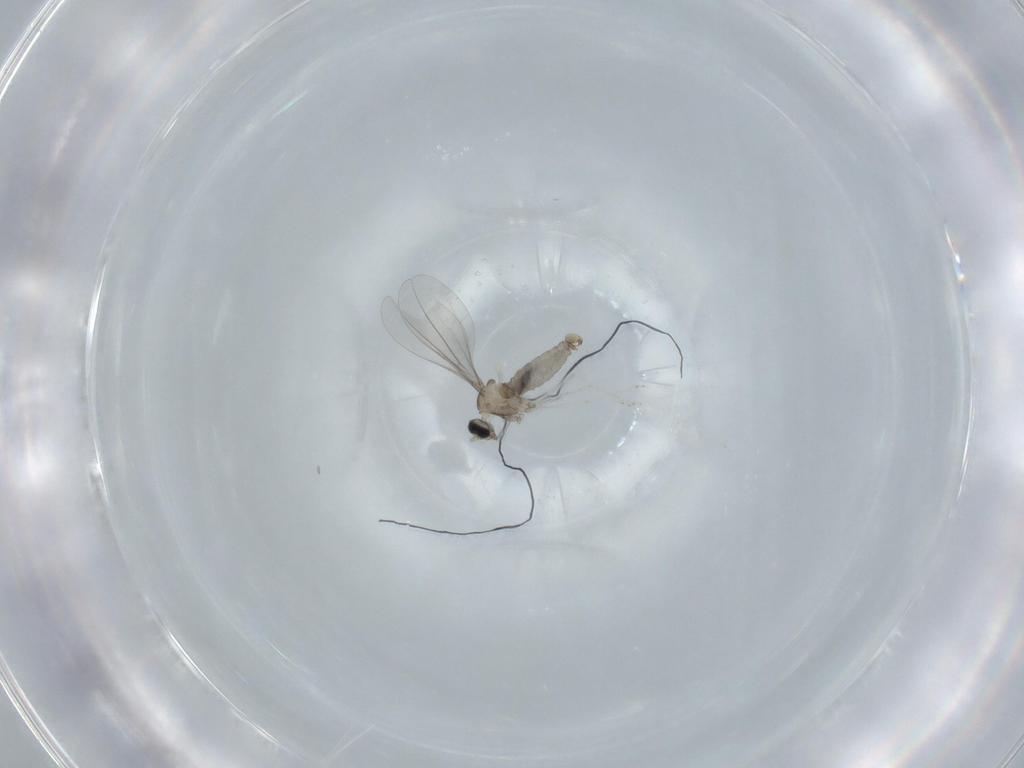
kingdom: Animalia
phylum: Arthropoda
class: Insecta
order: Diptera
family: Cecidomyiidae
